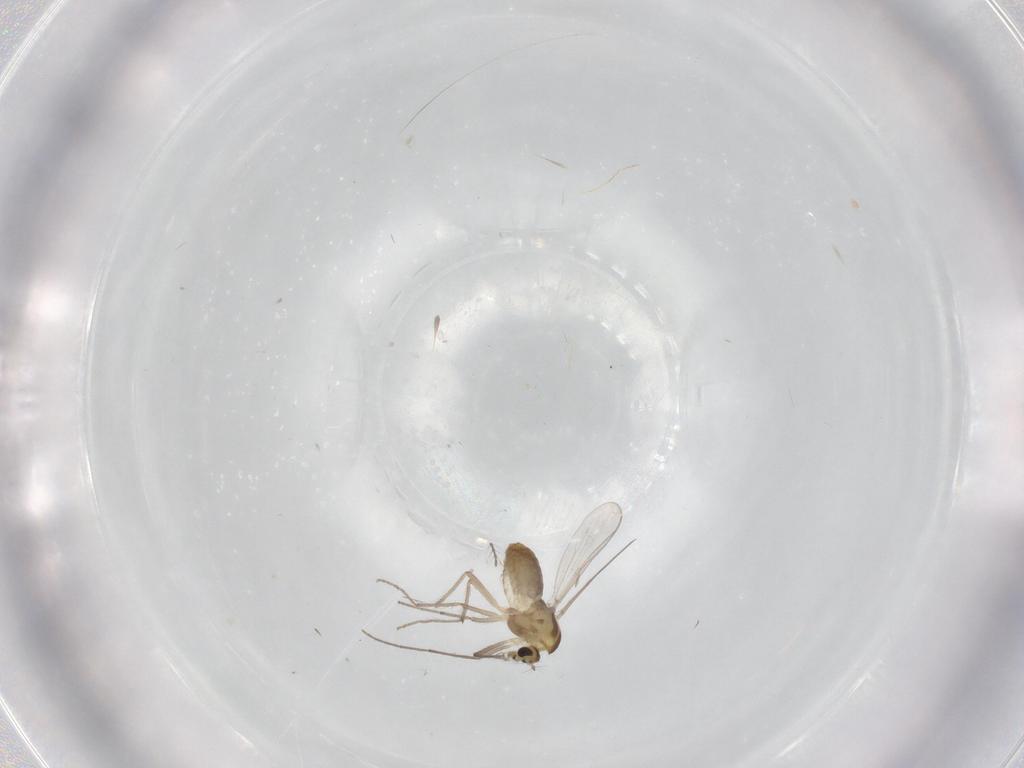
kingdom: Animalia
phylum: Arthropoda
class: Insecta
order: Diptera
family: Chironomidae
